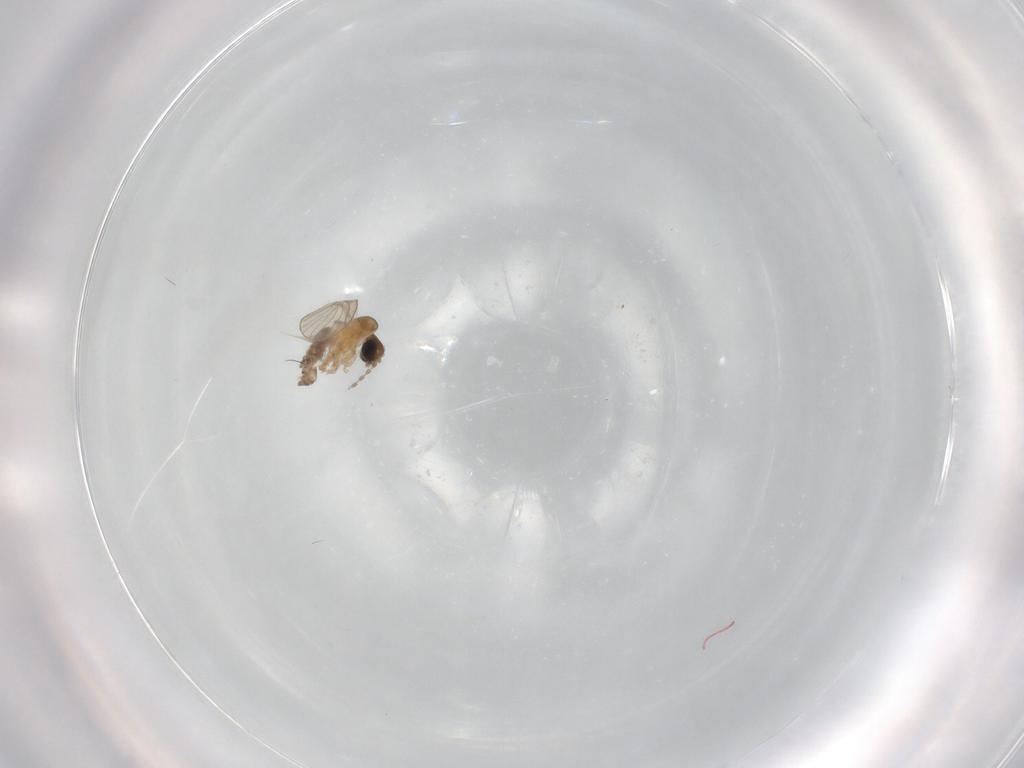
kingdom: Animalia
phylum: Arthropoda
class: Insecta
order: Diptera
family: Psychodidae
